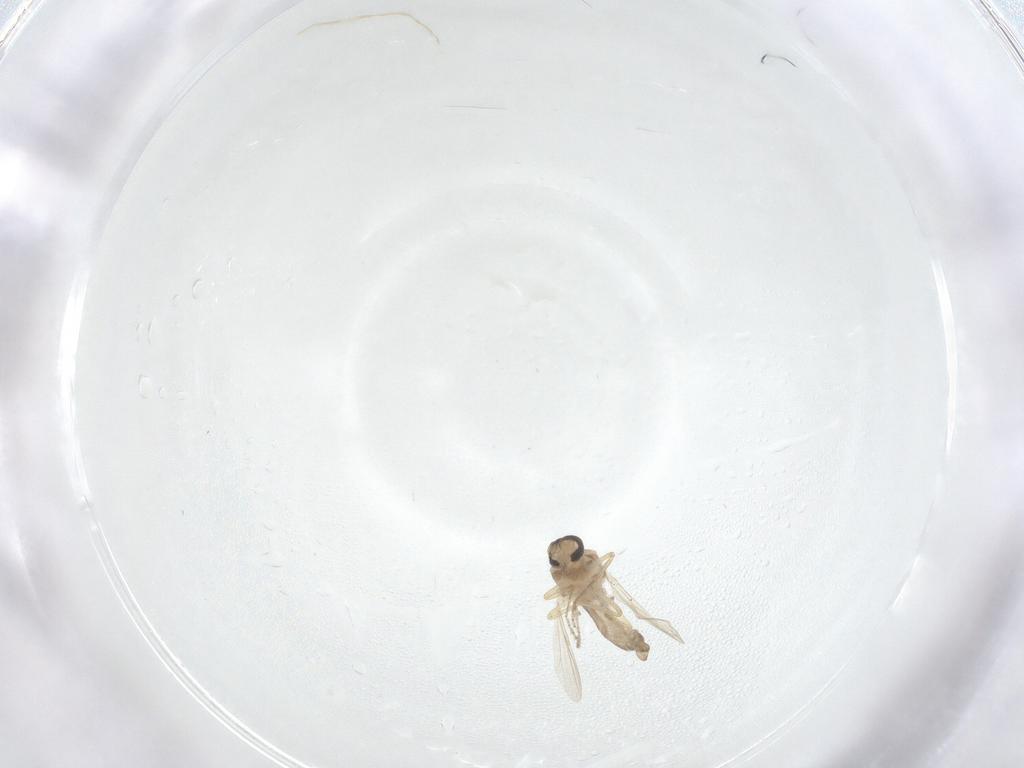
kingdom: Animalia
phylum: Arthropoda
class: Insecta
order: Diptera
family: Ceratopogonidae
